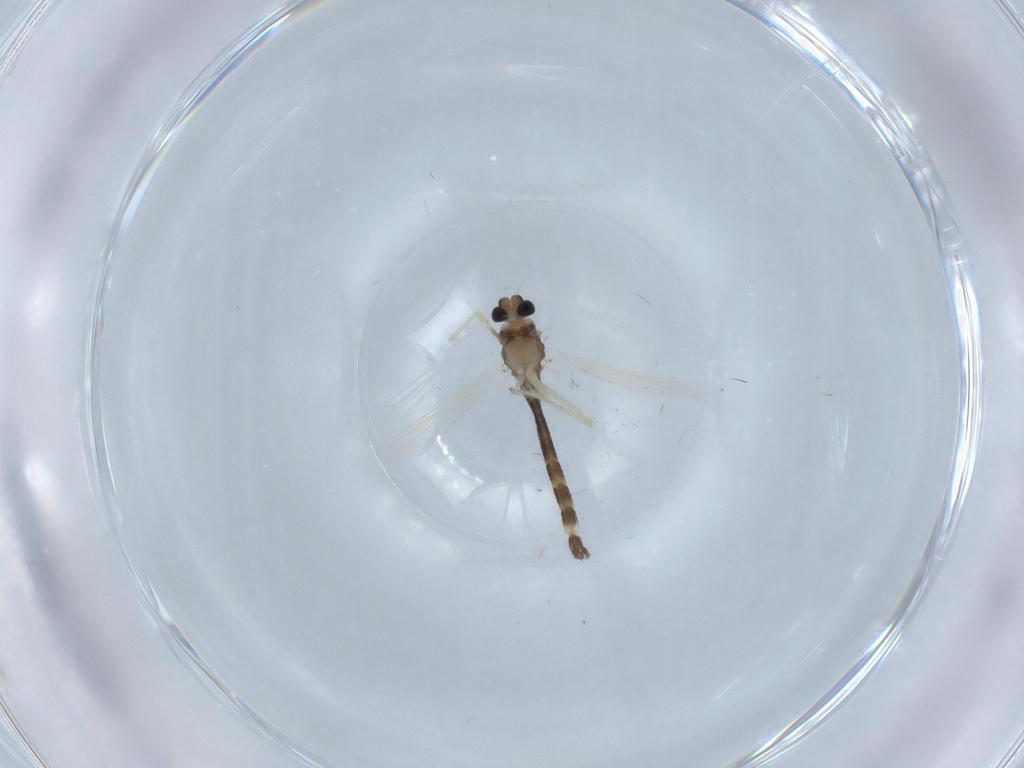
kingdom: Animalia
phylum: Arthropoda
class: Insecta
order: Diptera
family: Chironomidae
